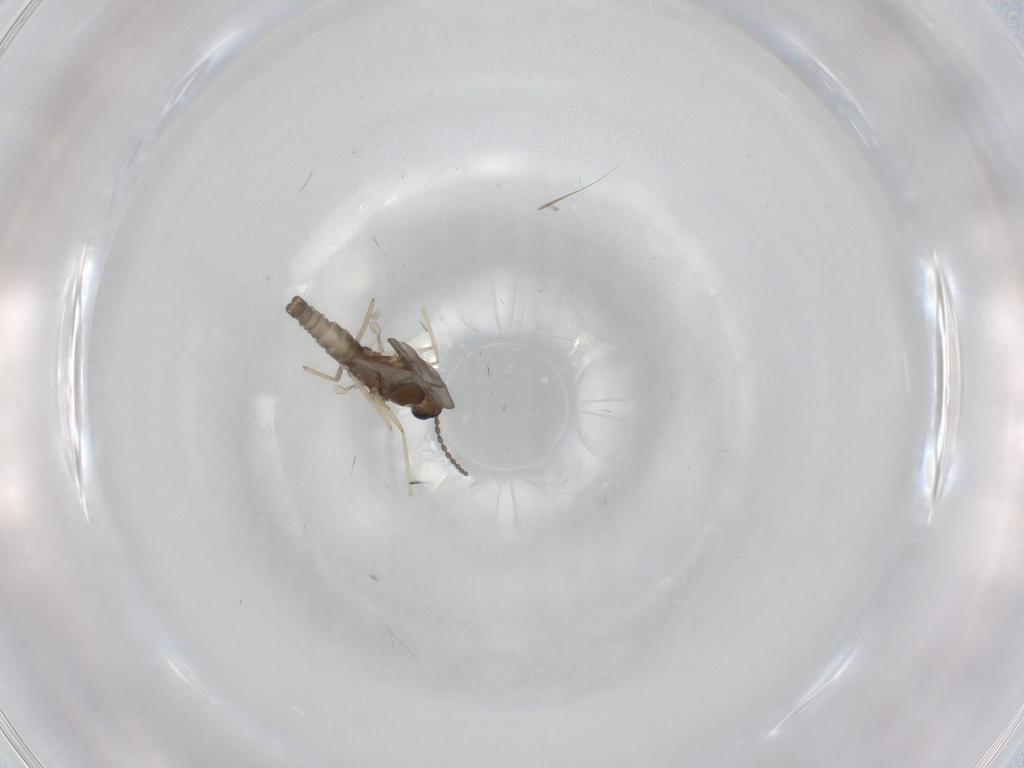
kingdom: Animalia
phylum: Arthropoda
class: Insecta
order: Diptera
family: Cecidomyiidae
